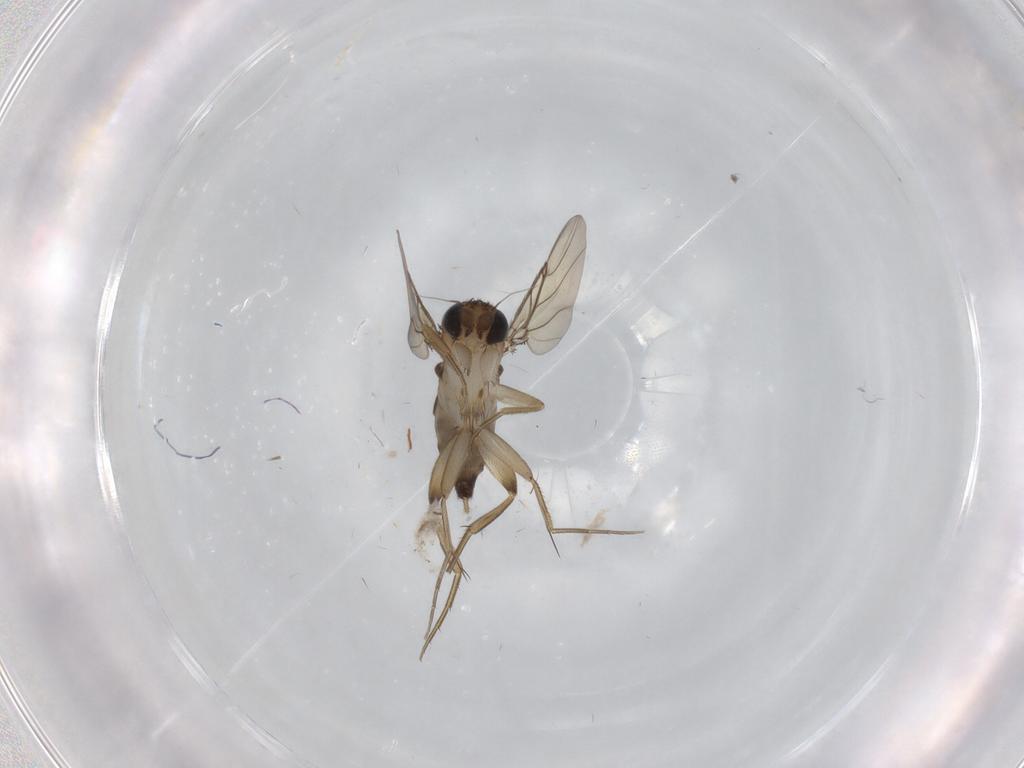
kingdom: Animalia
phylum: Arthropoda
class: Insecta
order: Diptera
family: Phoridae
